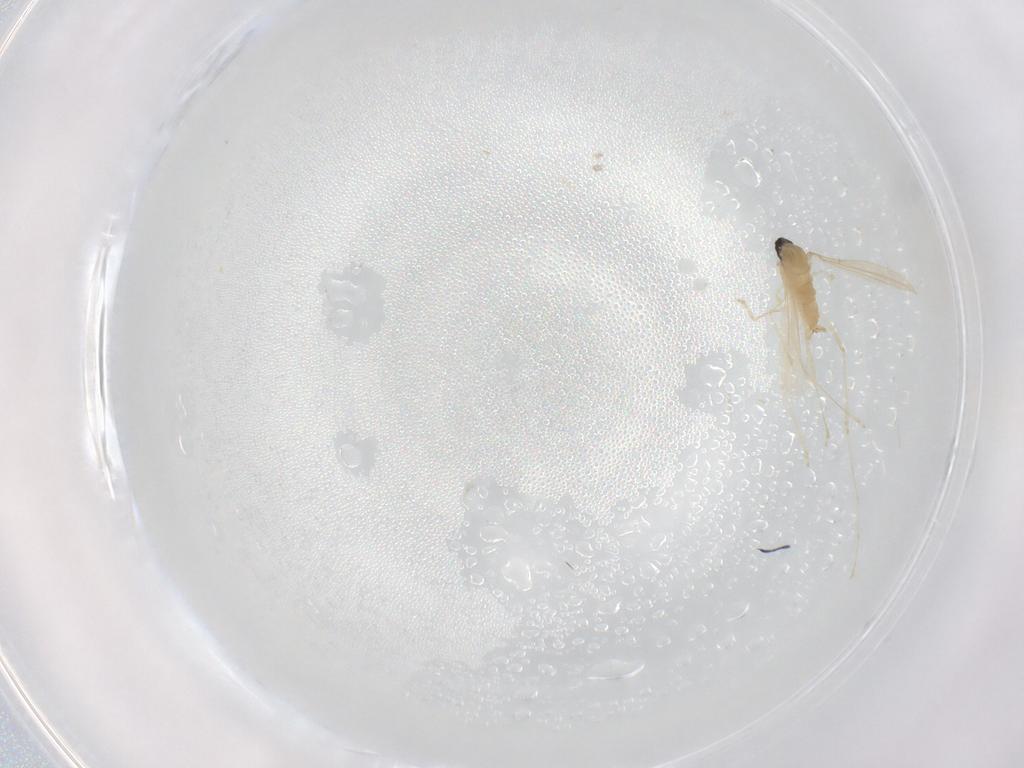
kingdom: Animalia
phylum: Arthropoda
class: Insecta
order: Diptera
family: Cecidomyiidae
